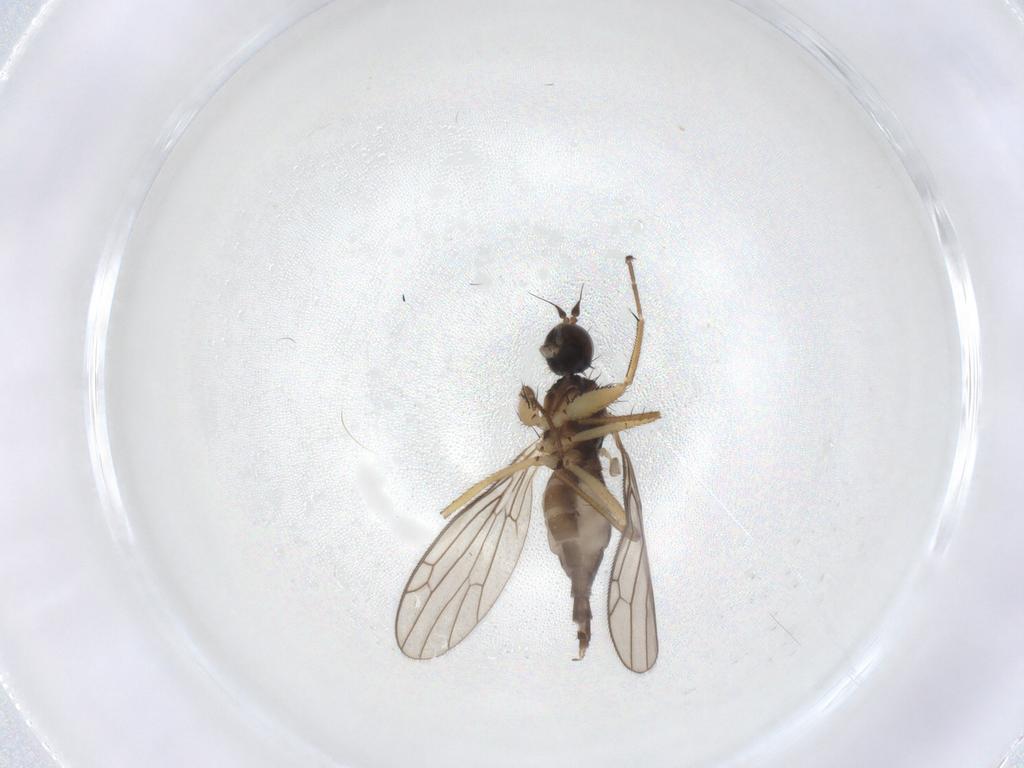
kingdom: Animalia
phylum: Arthropoda
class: Insecta
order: Diptera
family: Empididae
